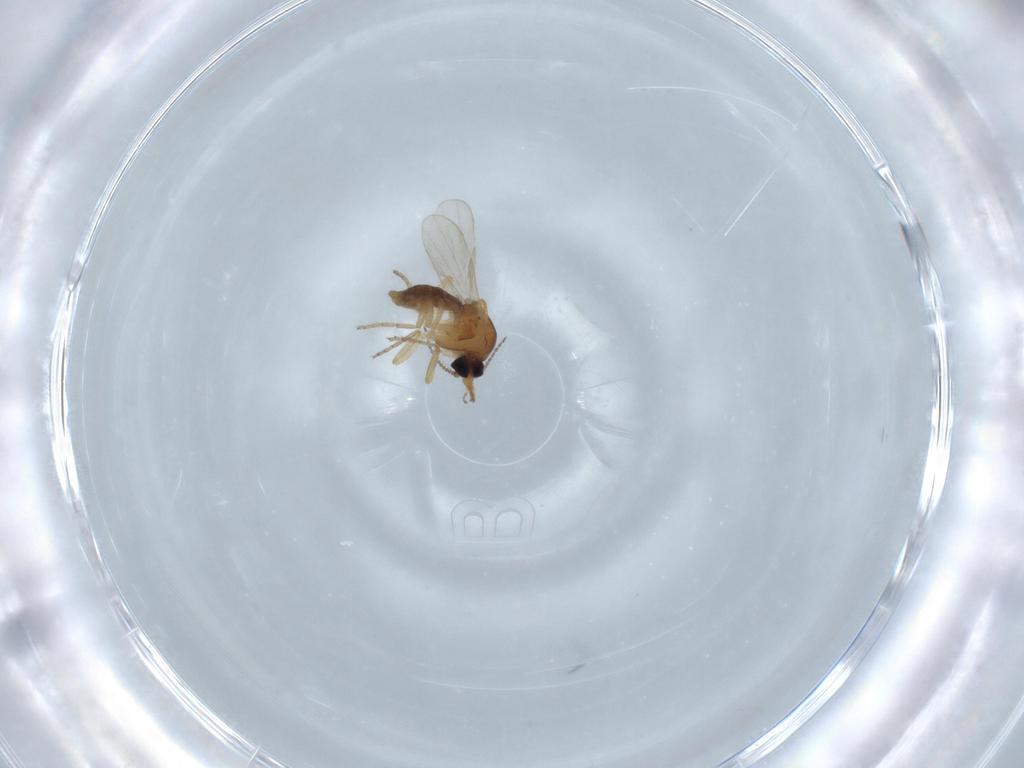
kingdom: Animalia
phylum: Arthropoda
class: Insecta
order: Diptera
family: Ceratopogonidae
